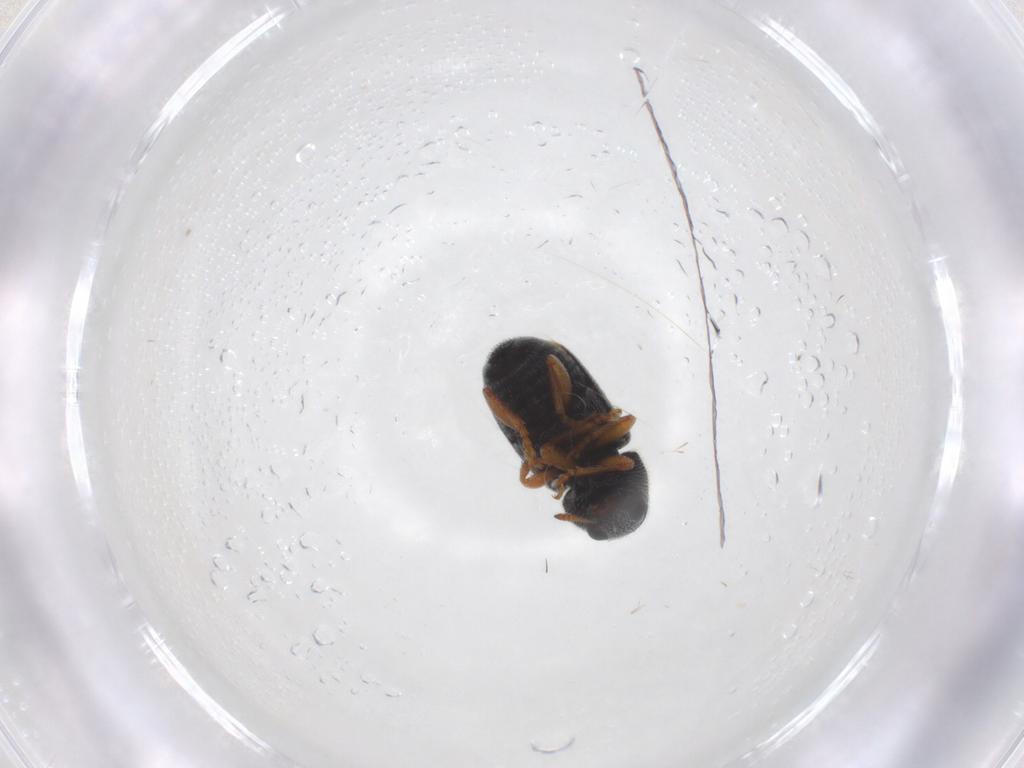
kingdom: Animalia
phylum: Arthropoda
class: Insecta
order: Coleoptera
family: Anthribidae
